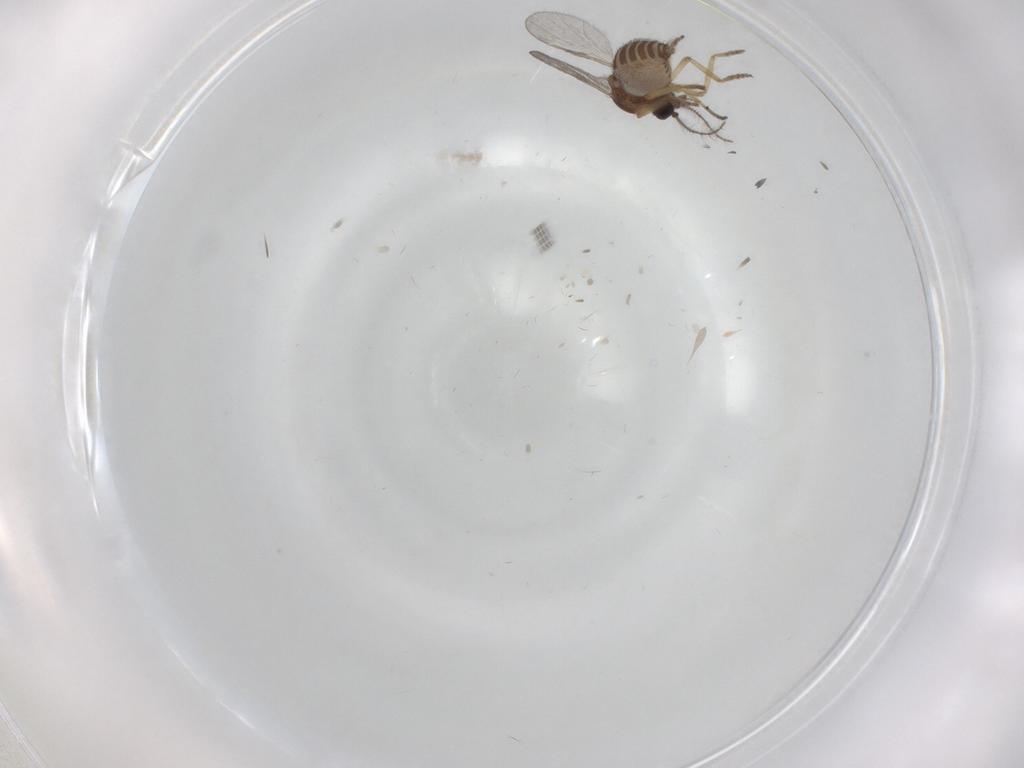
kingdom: Animalia
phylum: Arthropoda
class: Insecta
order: Diptera
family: Ceratopogonidae
